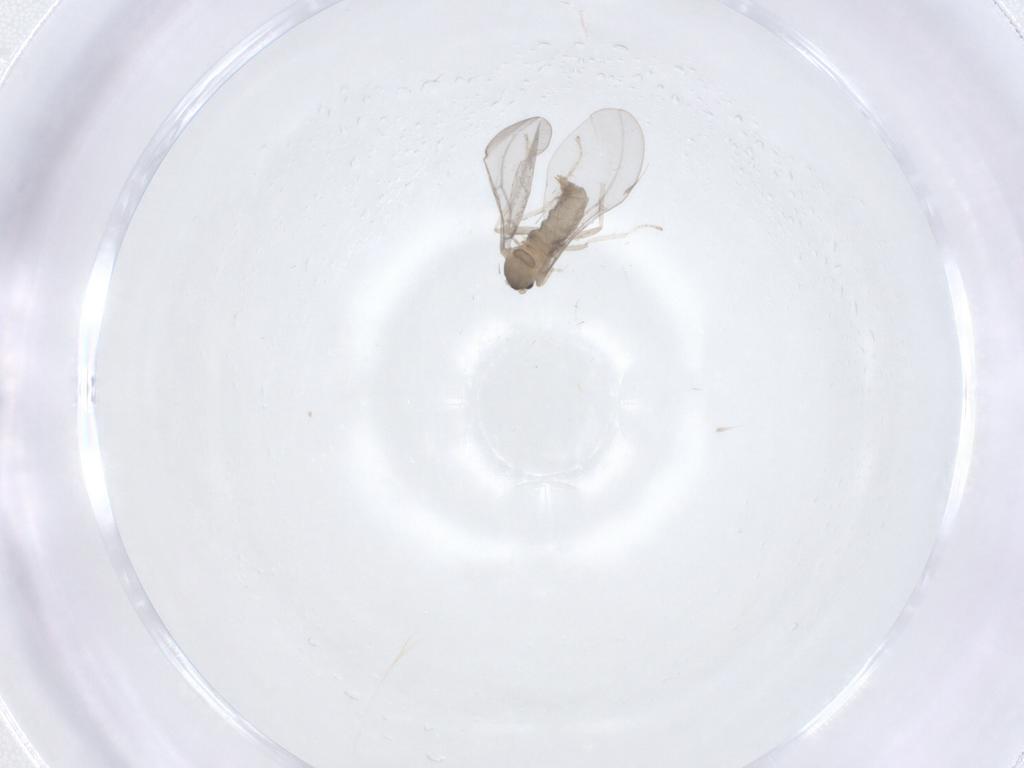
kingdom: Animalia
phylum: Arthropoda
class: Insecta
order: Diptera
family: Cecidomyiidae
